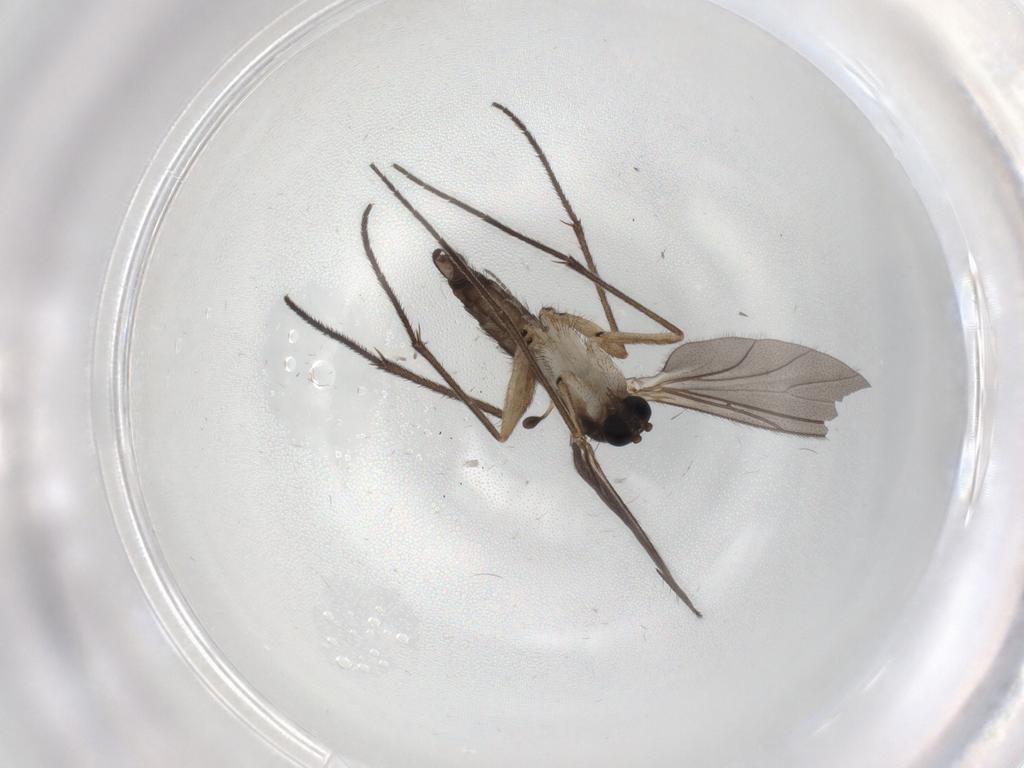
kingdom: Animalia
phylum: Arthropoda
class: Insecta
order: Diptera
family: Sciaridae
